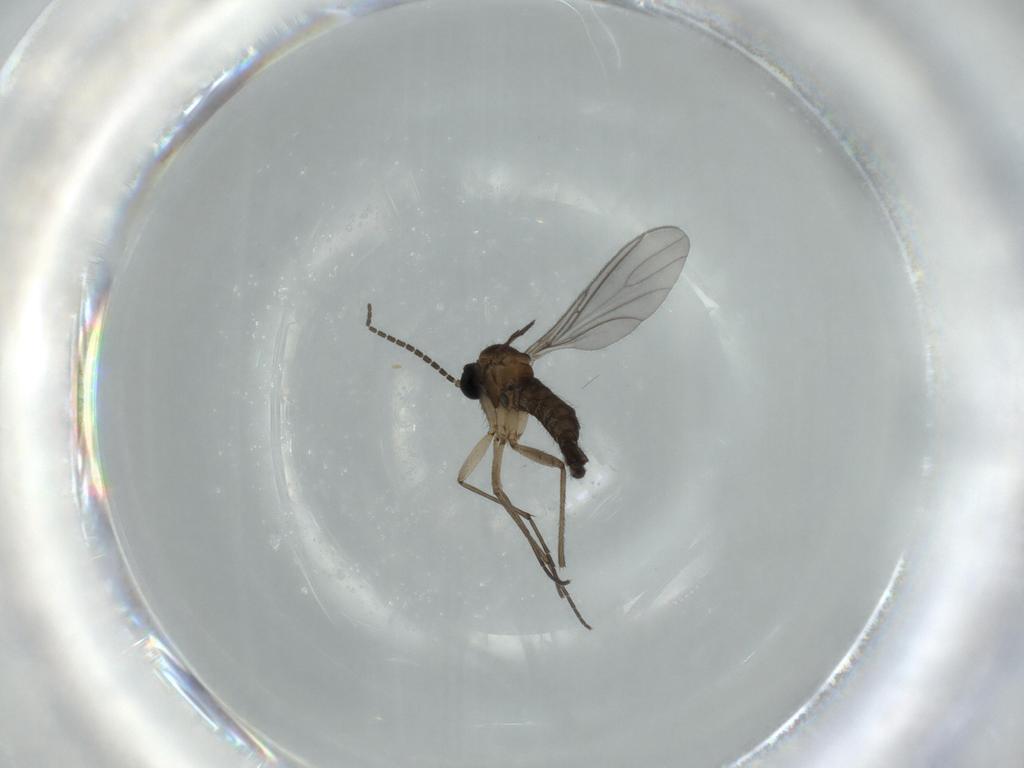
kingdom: Animalia
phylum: Arthropoda
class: Insecta
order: Diptera
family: Sciaridae
